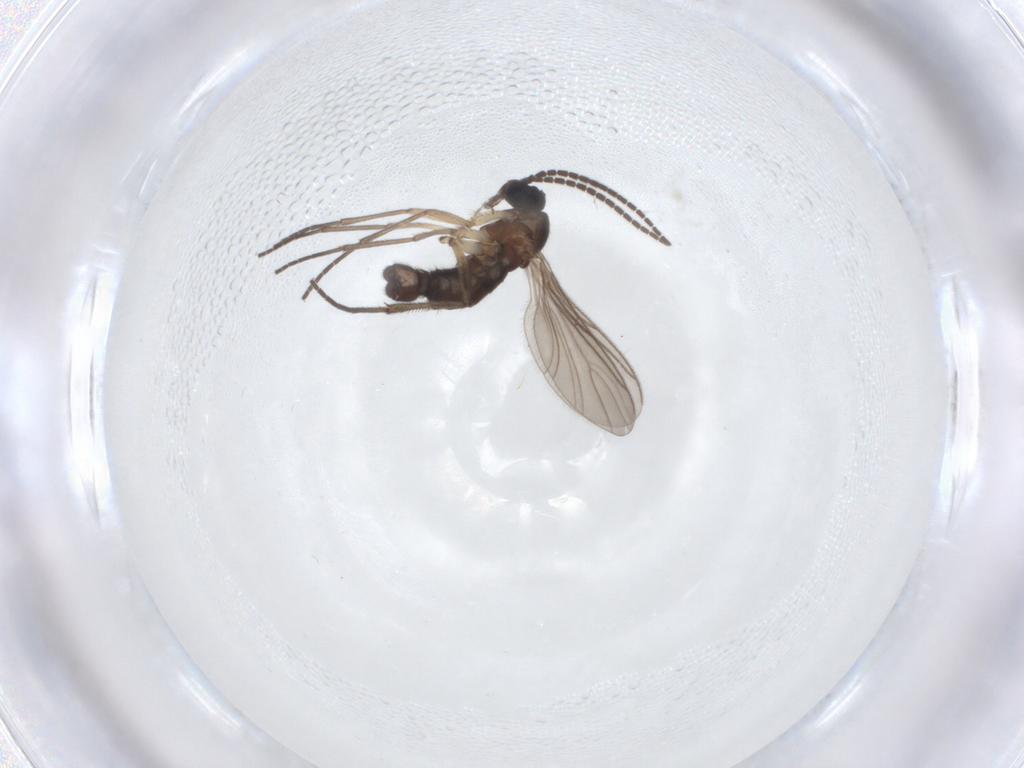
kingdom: Animalia
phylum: Arthropoda
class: Insecta
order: Diptera
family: Sciaridae
